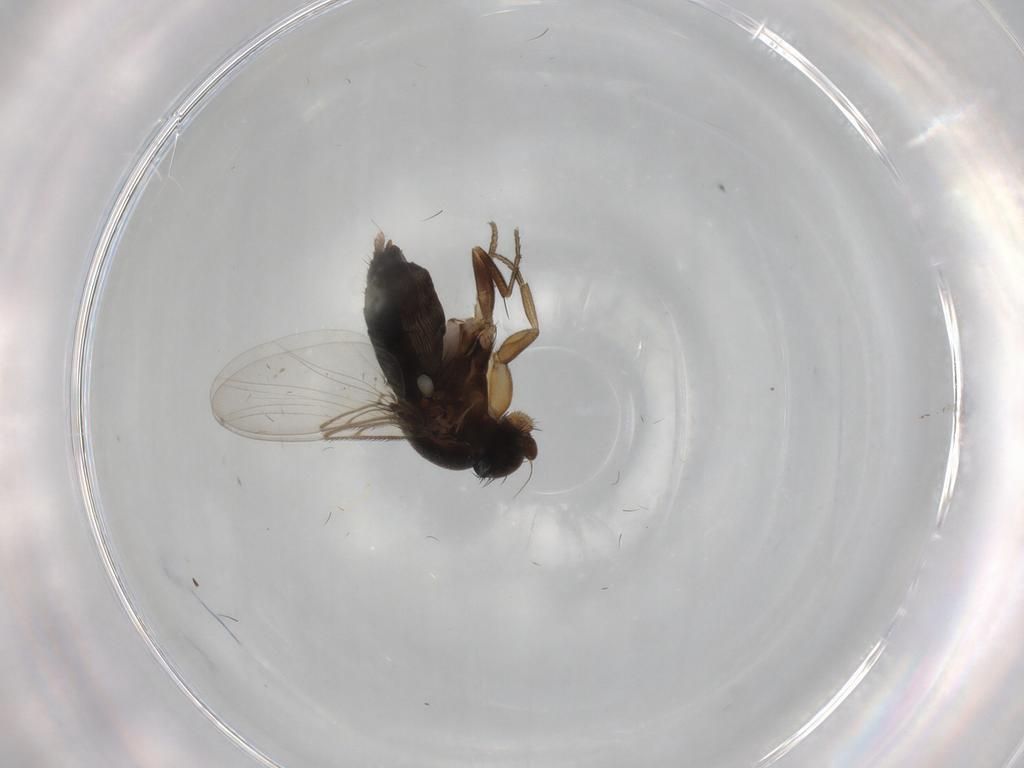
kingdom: Animalia
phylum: Arthropoda
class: Insecta
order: Diptera
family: Phoridae
